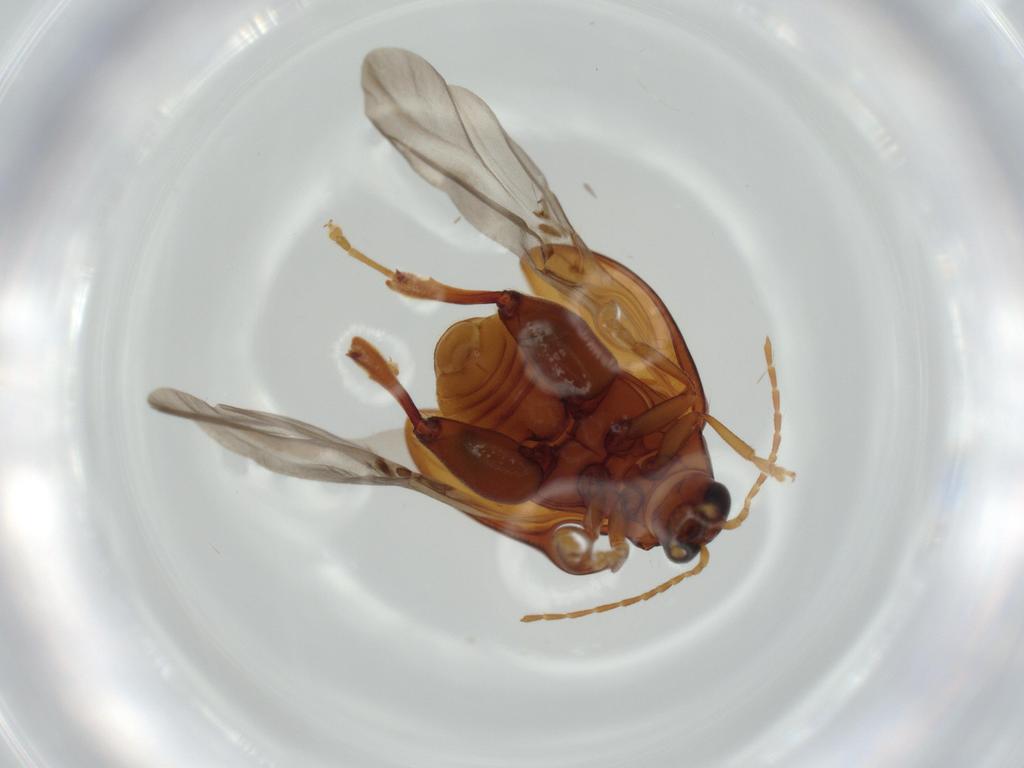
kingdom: Animalia
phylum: Arthropoda
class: Insecta
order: Coleoptera
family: Chrysomelidae
